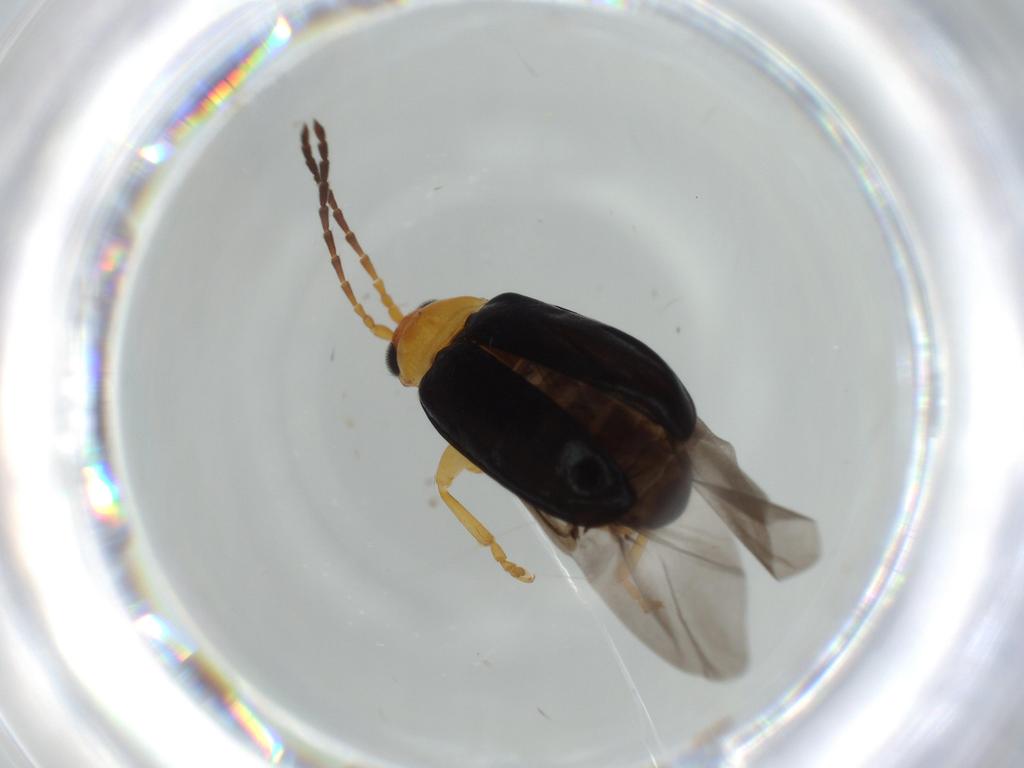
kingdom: Animalia
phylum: Arthropoda
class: Insecta
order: Coleoptera
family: Chrysomelidae
